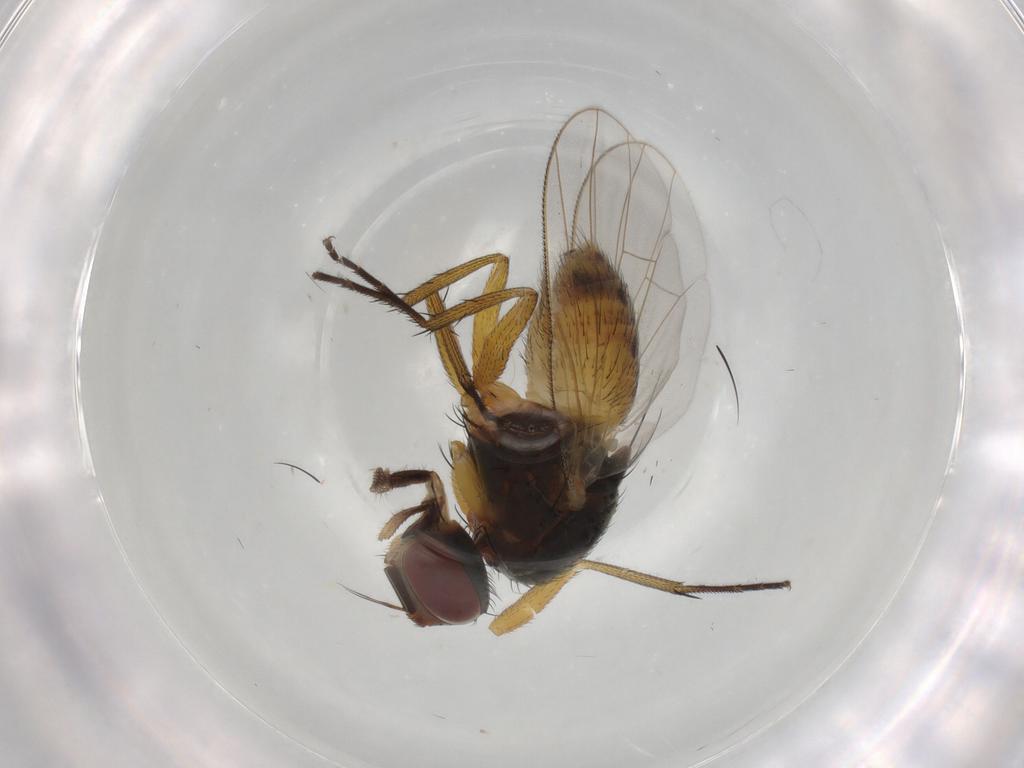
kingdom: Animalia
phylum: Arthropoda
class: Insecta
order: Diptera
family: Muscidae
